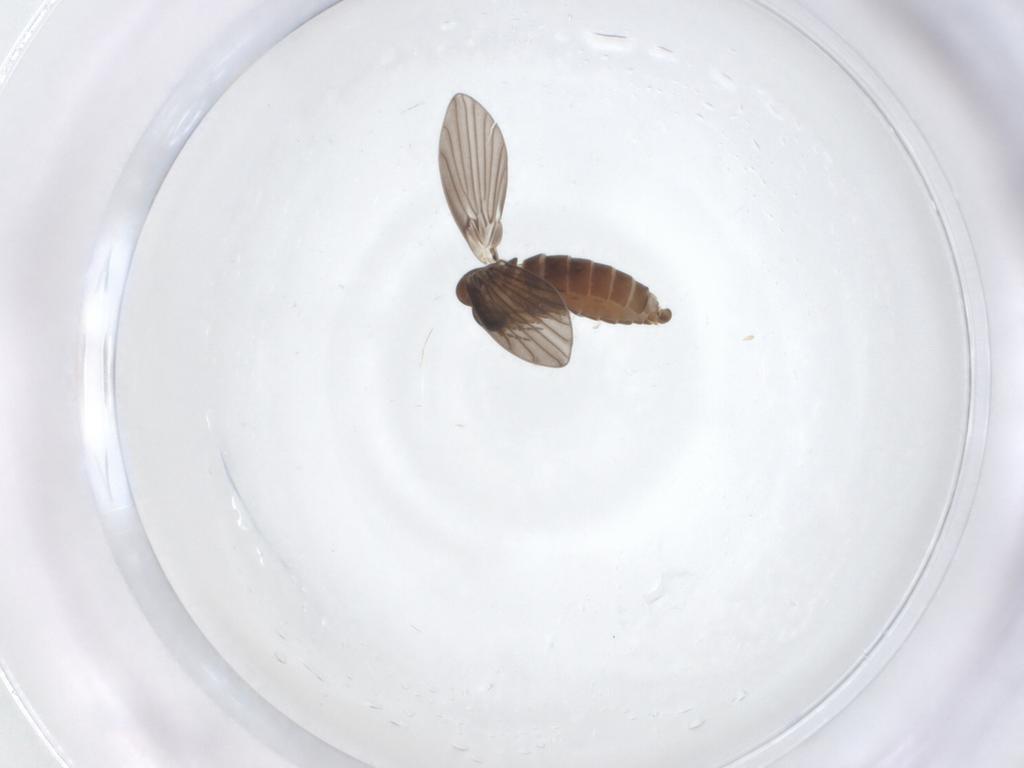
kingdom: Animalia
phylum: Arthropoda
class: Insecta
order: Diptera
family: Psychodidae
